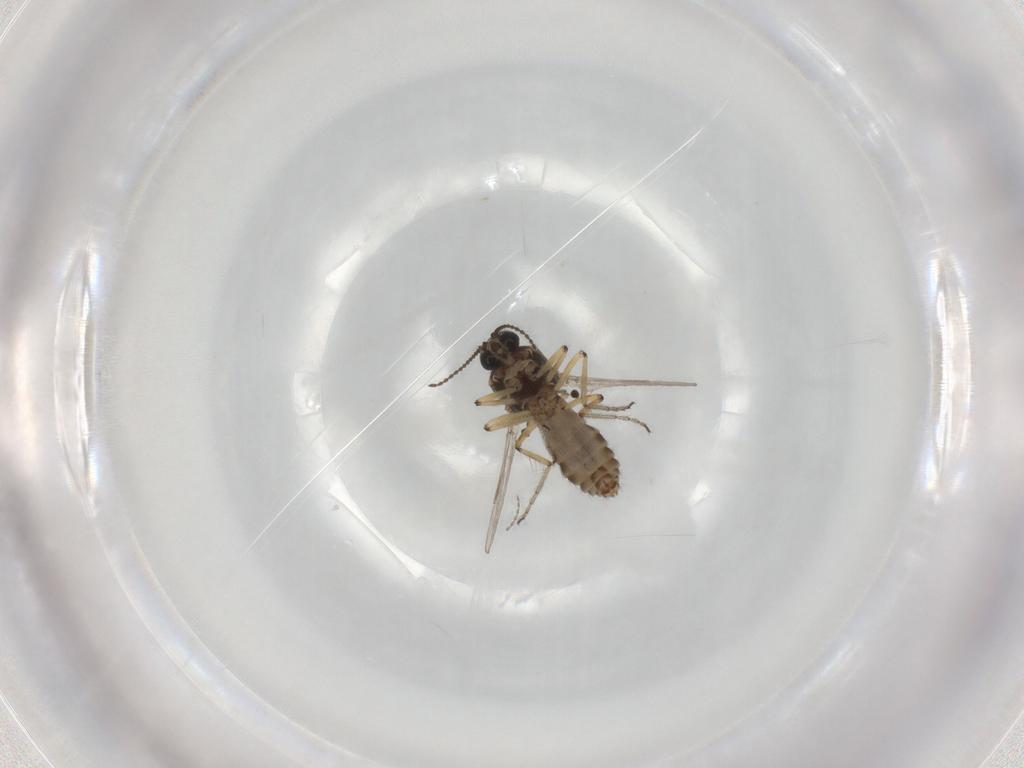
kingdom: Animalia
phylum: Arthropoda
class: Insecta
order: Diptera
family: Ceratopogonidae
